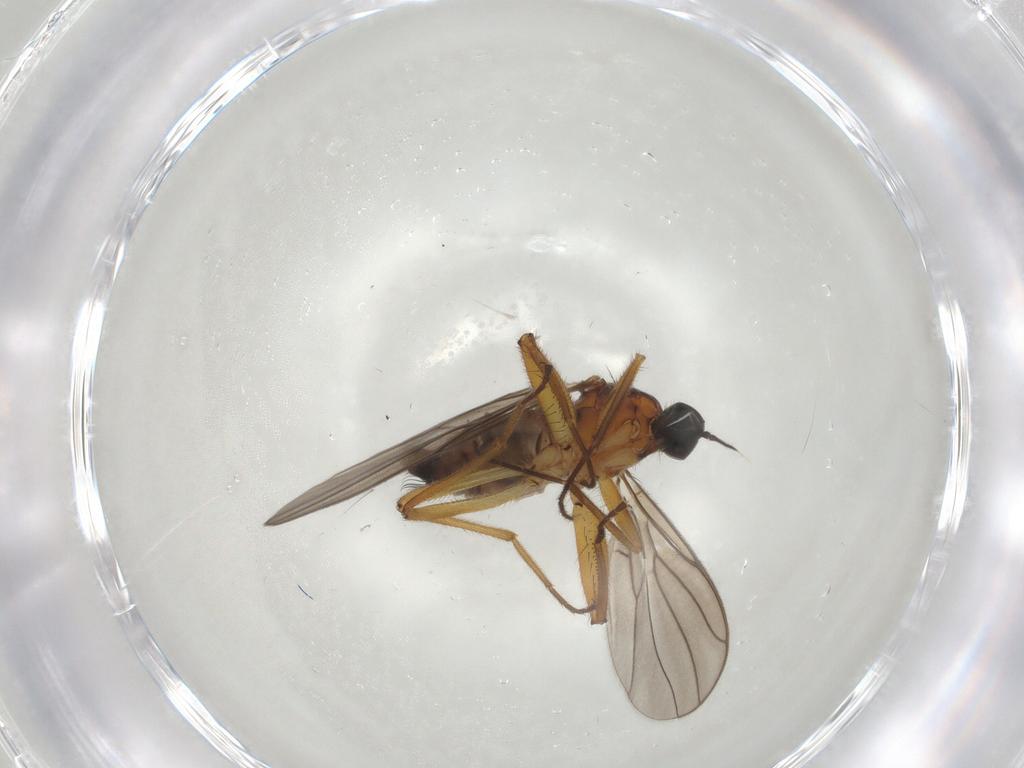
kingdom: Animalia
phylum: Arthropoda
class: Insecta
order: Diptera
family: Hybotidae
